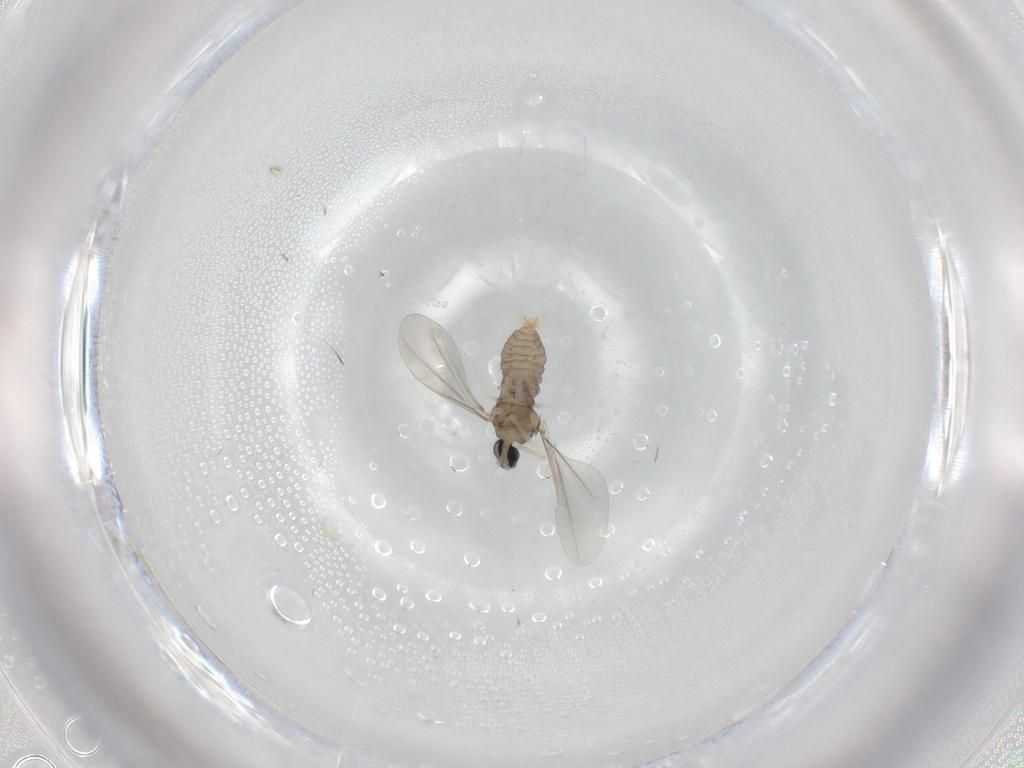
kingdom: Animalia
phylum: Arthropoda
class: Insecta
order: Diptera
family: Cecidomyiidae
